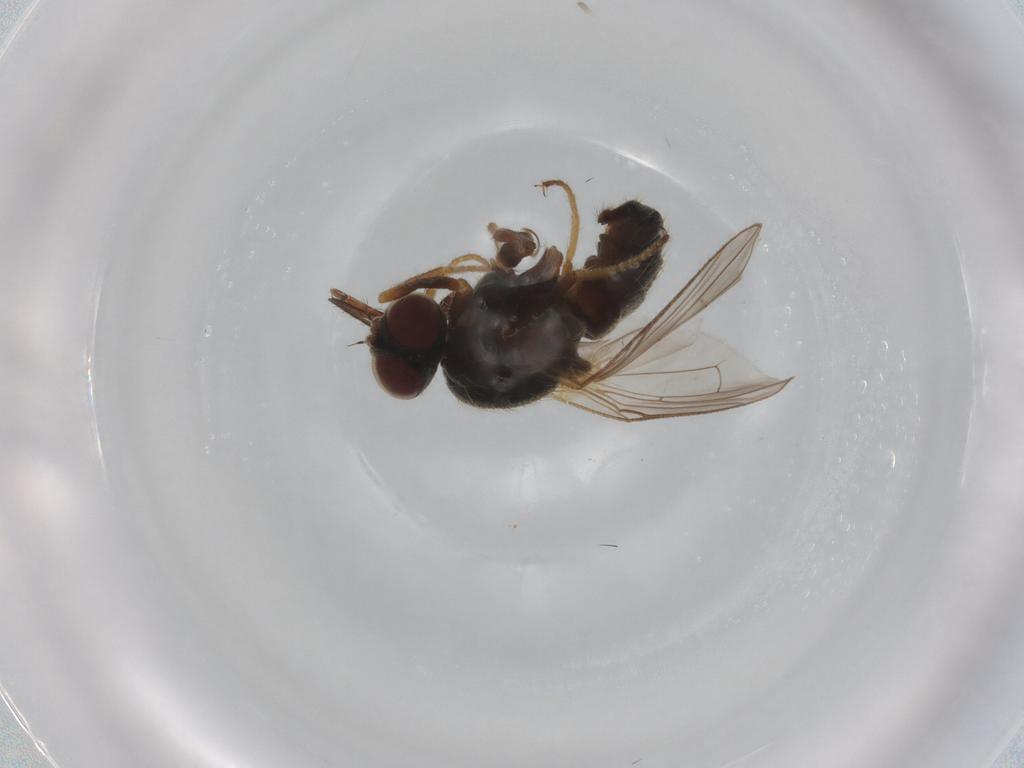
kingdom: Animalia
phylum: Arthropoda
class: Insecta
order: Diptera
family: Muscidae
